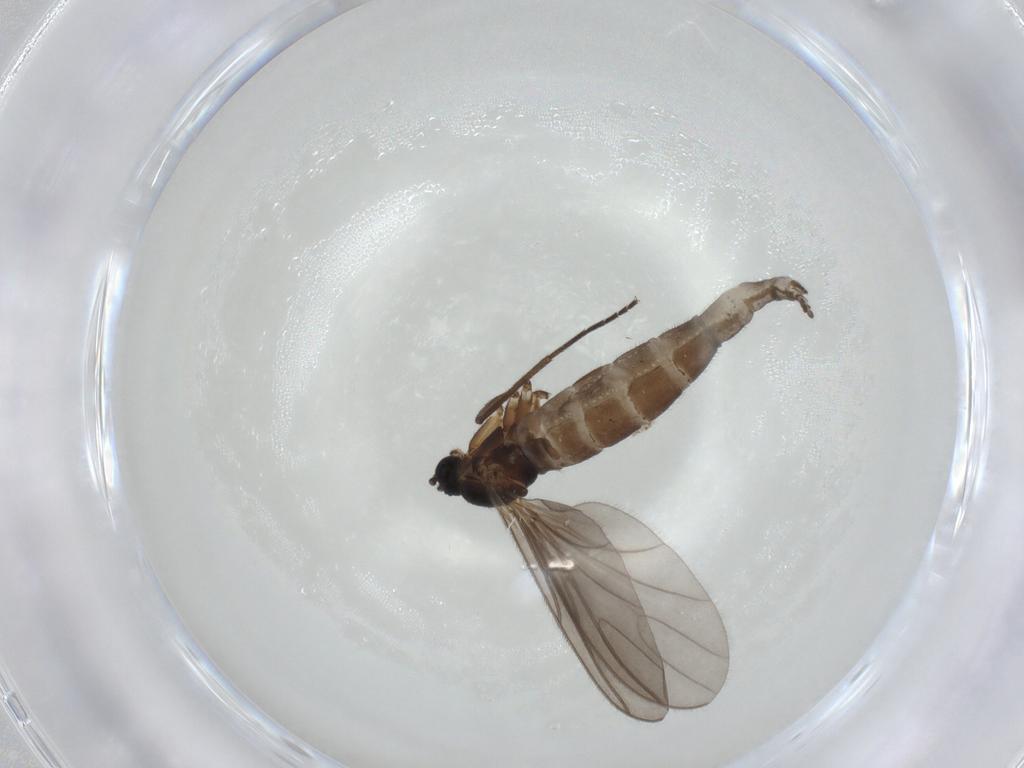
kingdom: Animalia
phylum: Arthropoda
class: Insecta
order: Diptera
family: Sciaridae
